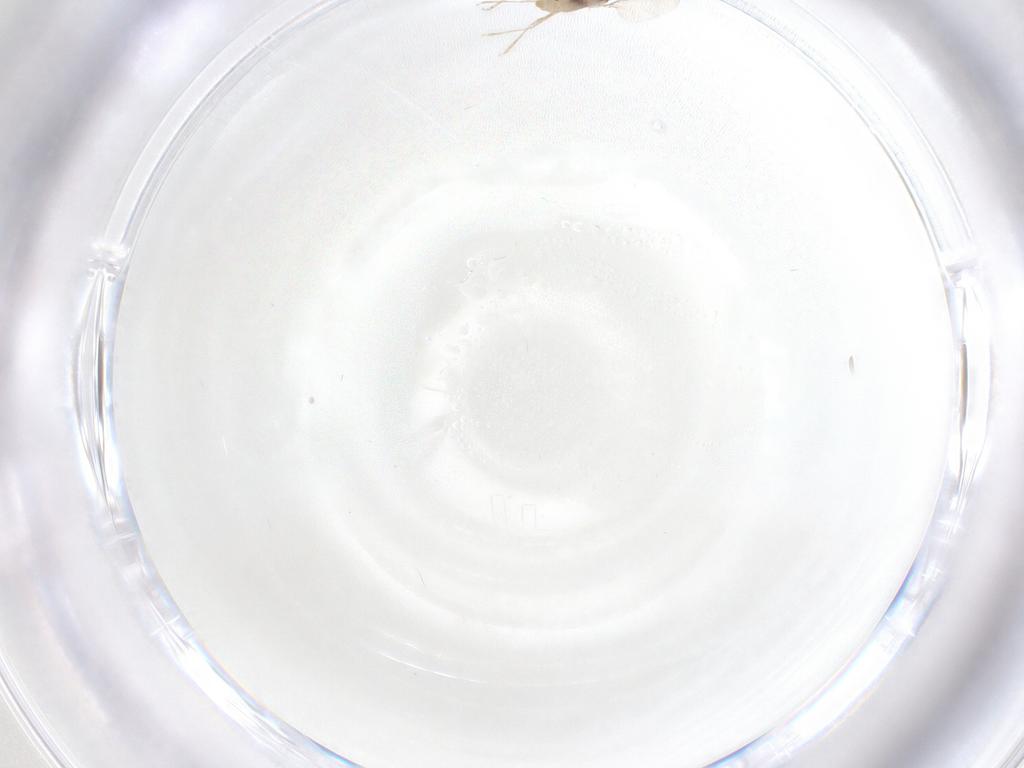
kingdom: Animalia
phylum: Arthropoda
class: Insecta
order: Diptera
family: Cecidomyiidae
